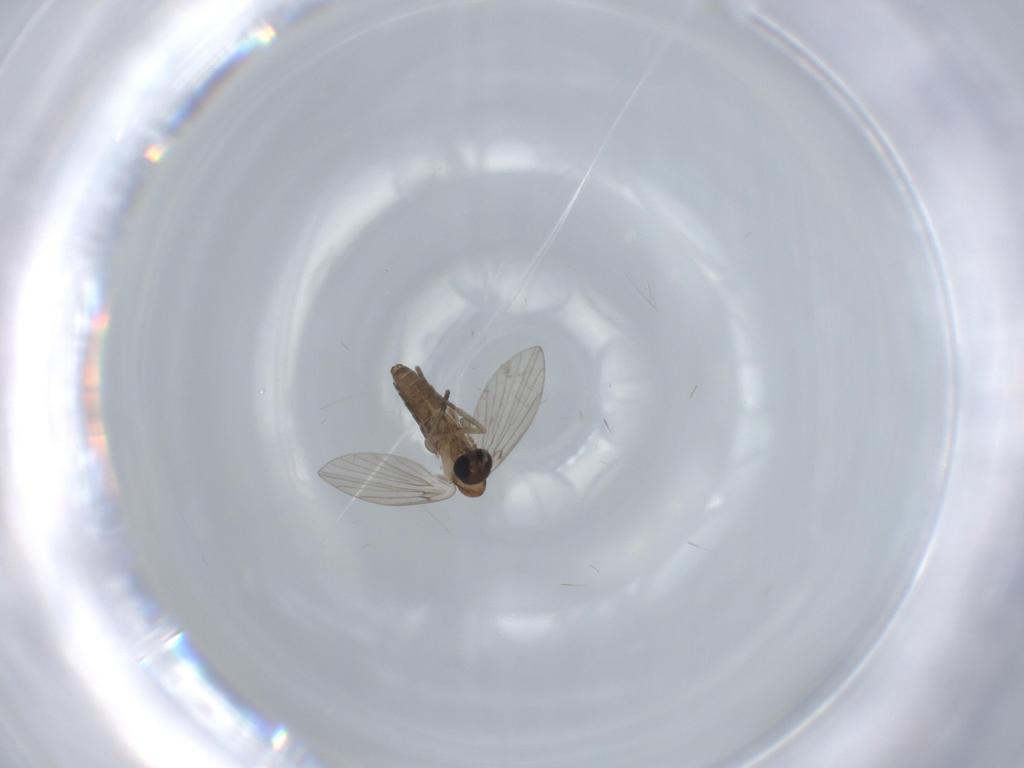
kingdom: Animalia
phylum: Arthropoda
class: Insecta
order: Diptera
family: Psychodidae
